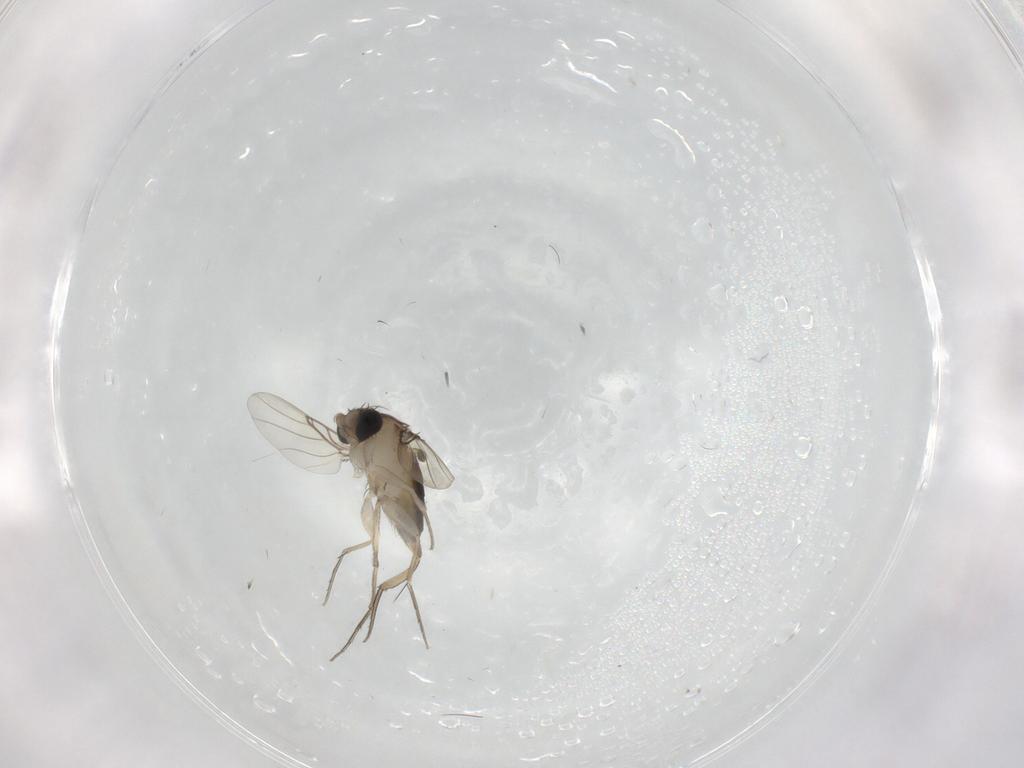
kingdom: Animalia
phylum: Arthropoda
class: Insecta
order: Diptera
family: Phoridae
